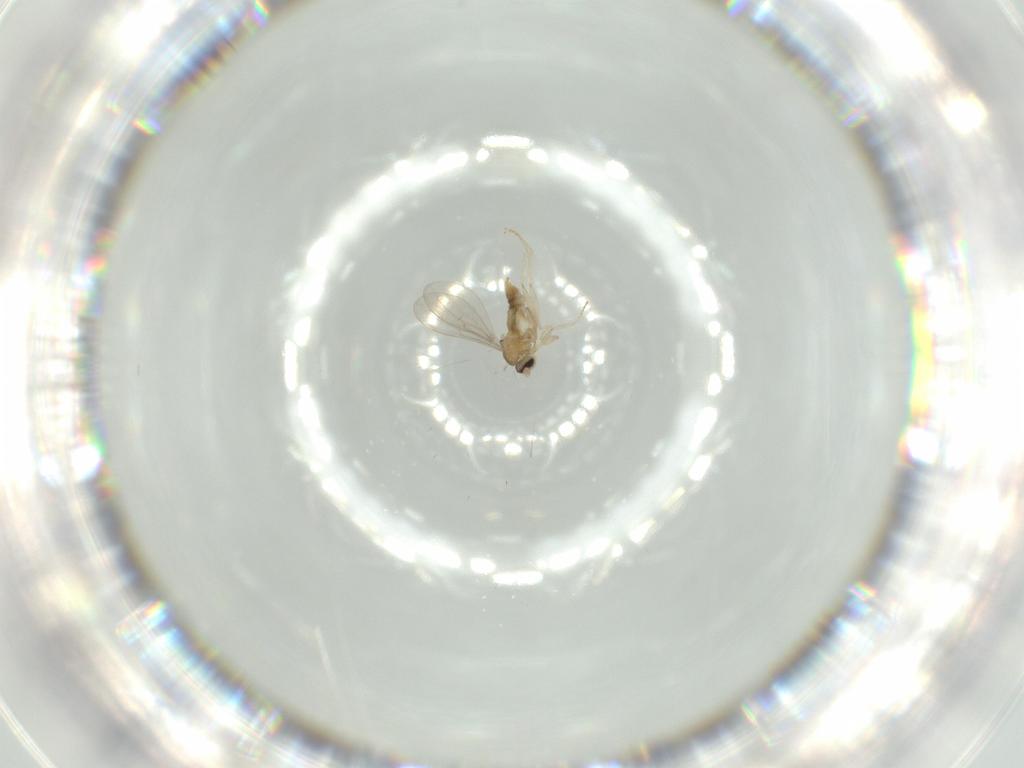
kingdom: Animalia
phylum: Arthropoda
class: Insecta
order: Diptera
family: Cecidomyiidae
